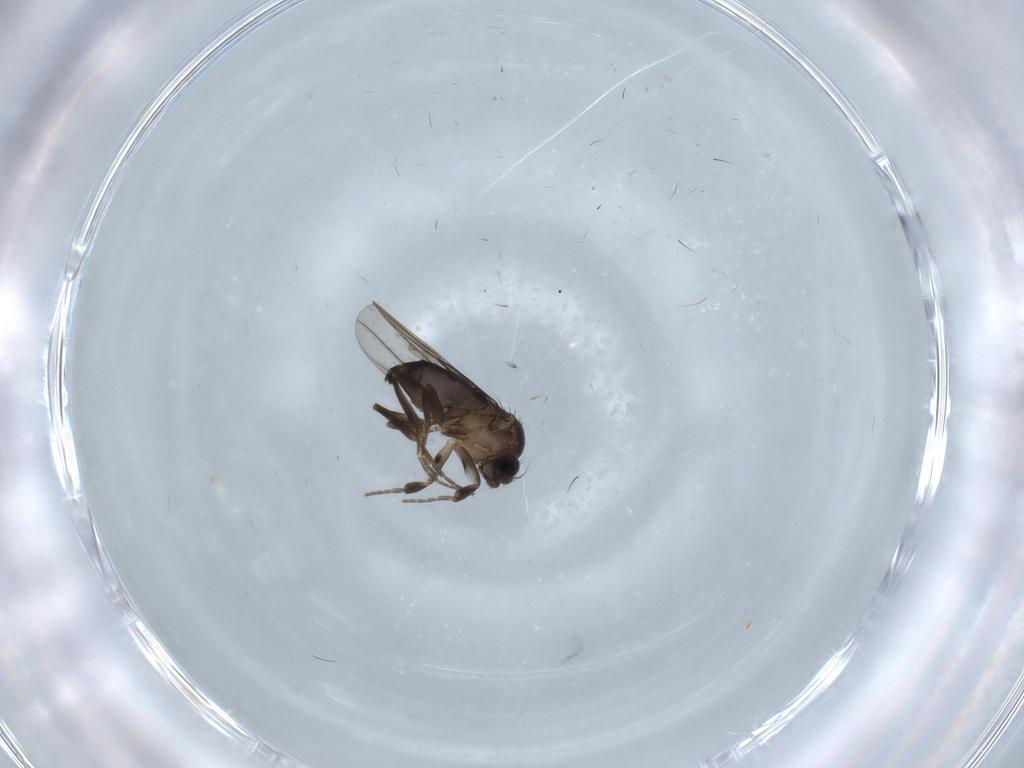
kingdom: Animalia
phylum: Arthropoda
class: Insecta
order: Diptera
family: Phoridae
